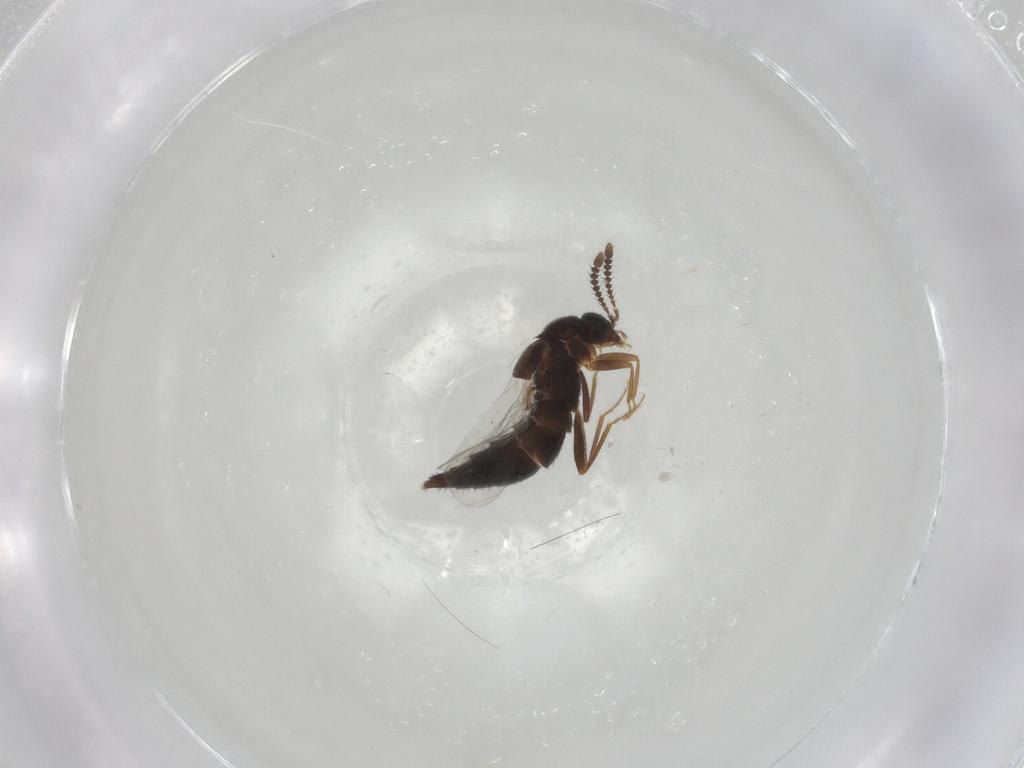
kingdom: Animalia
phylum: Arthropoda
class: Insecta
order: Coleoptera
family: Staphylinidae
